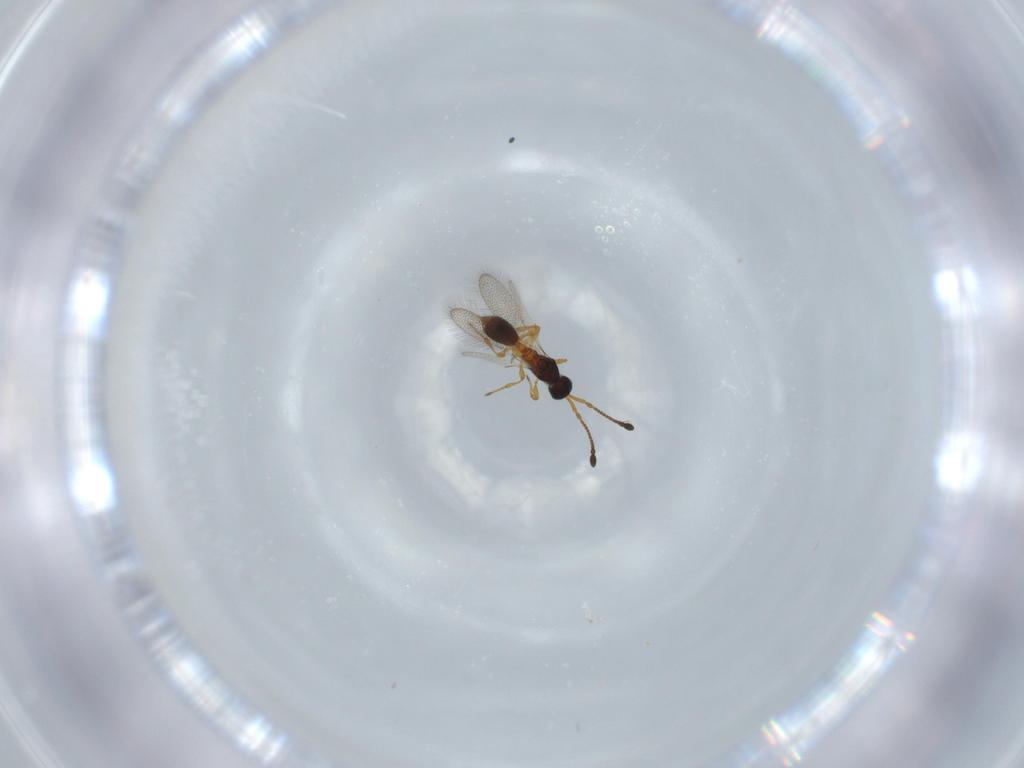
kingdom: Animalia
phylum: Arthropoda
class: Insecta
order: Hymenoptera
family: Diapriidae
